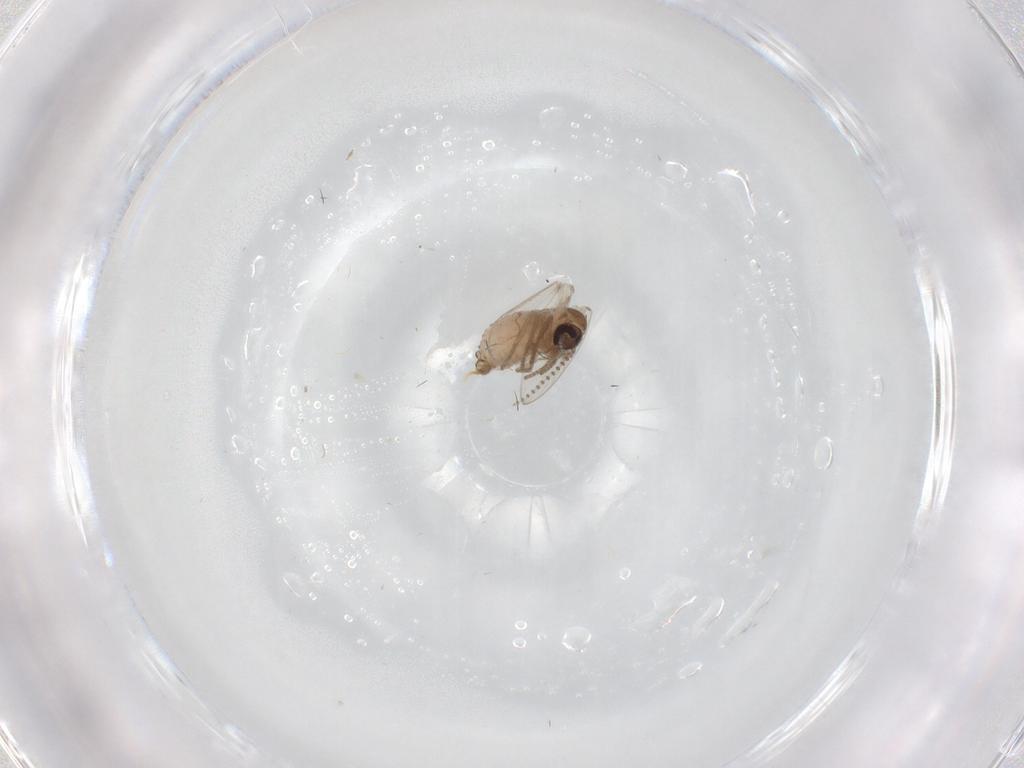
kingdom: Animalia
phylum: Arthropoda
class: Insecta
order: Diptera
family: Psychodidae
